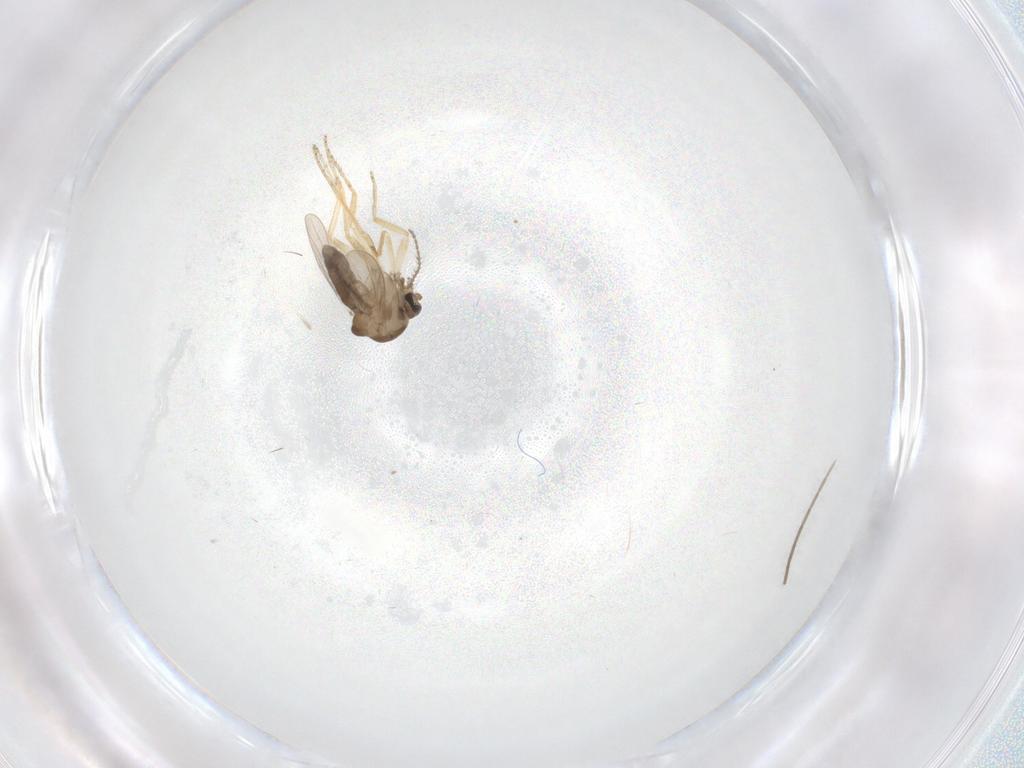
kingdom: Animalia
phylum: Arthropoda
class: Insecta
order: Diptera
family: Ceratopogonidae
